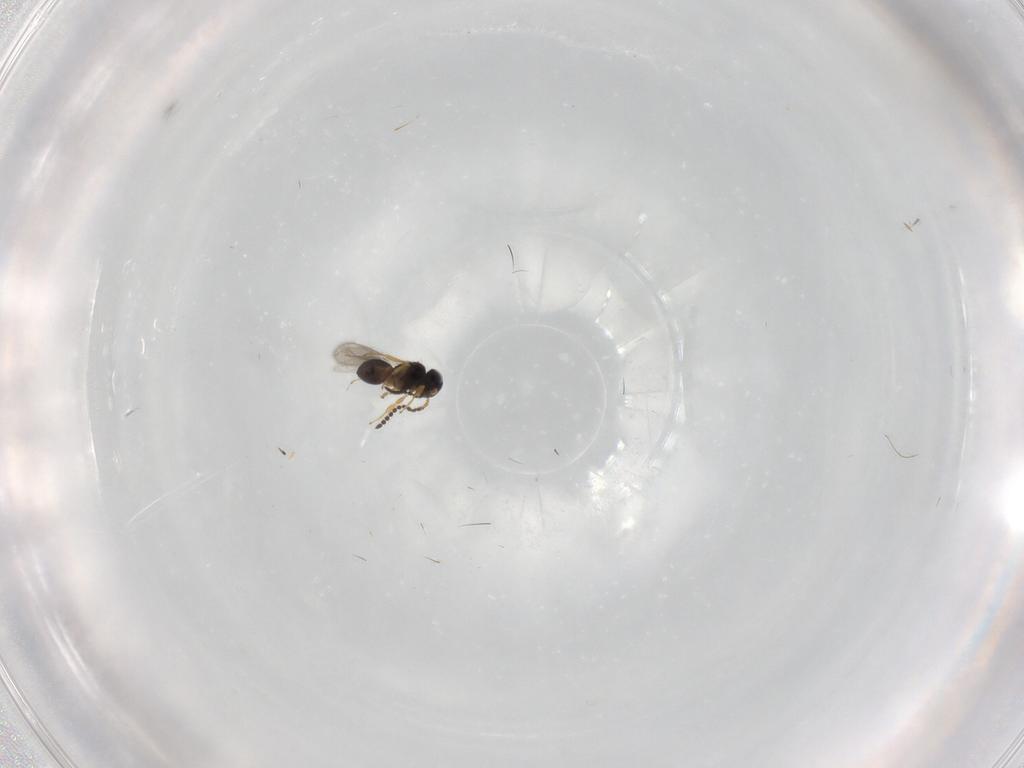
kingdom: Animalia
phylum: Arthropoda
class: Insecta
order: Hymenoptera
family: Scelionidae
